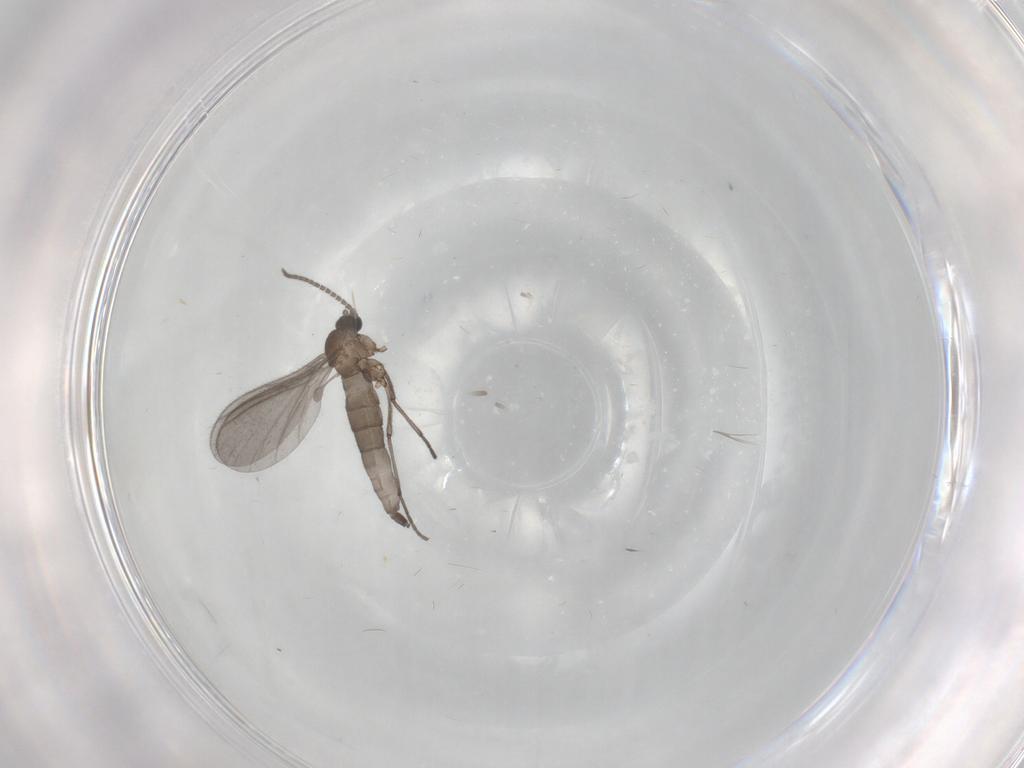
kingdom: Animalia
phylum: Arthropoda
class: Insecta
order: Diptera
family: Sciaridae
